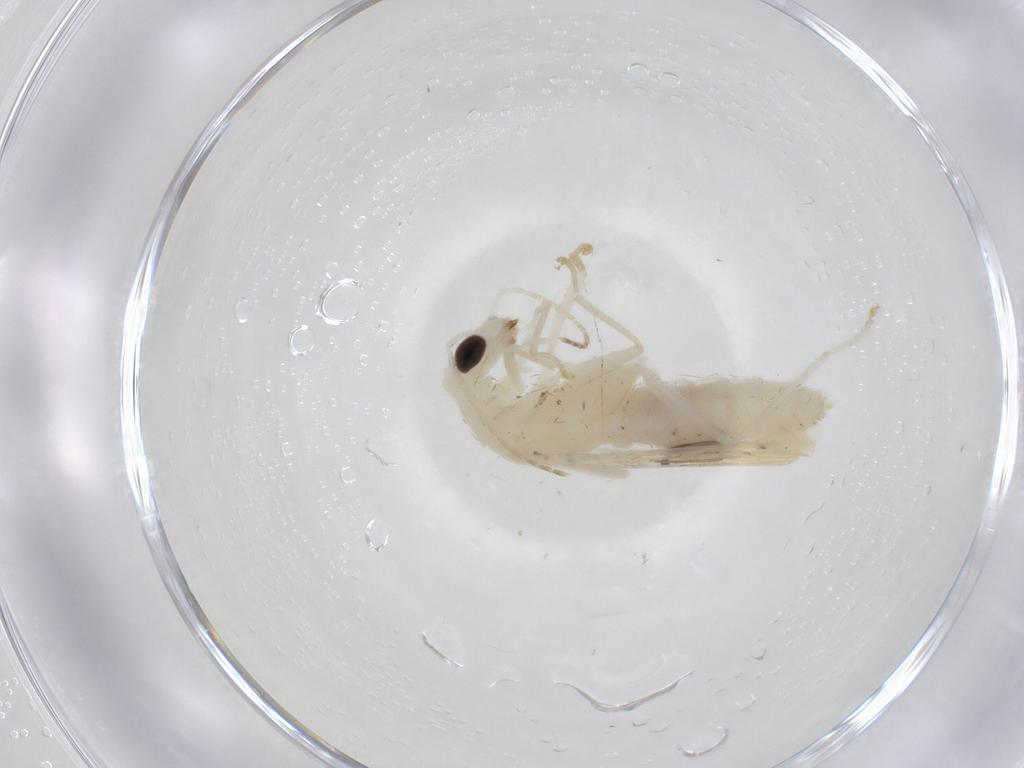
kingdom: Animalia
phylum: Arthropoda
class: Insecta
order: Coleoptera
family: Cantharidae
